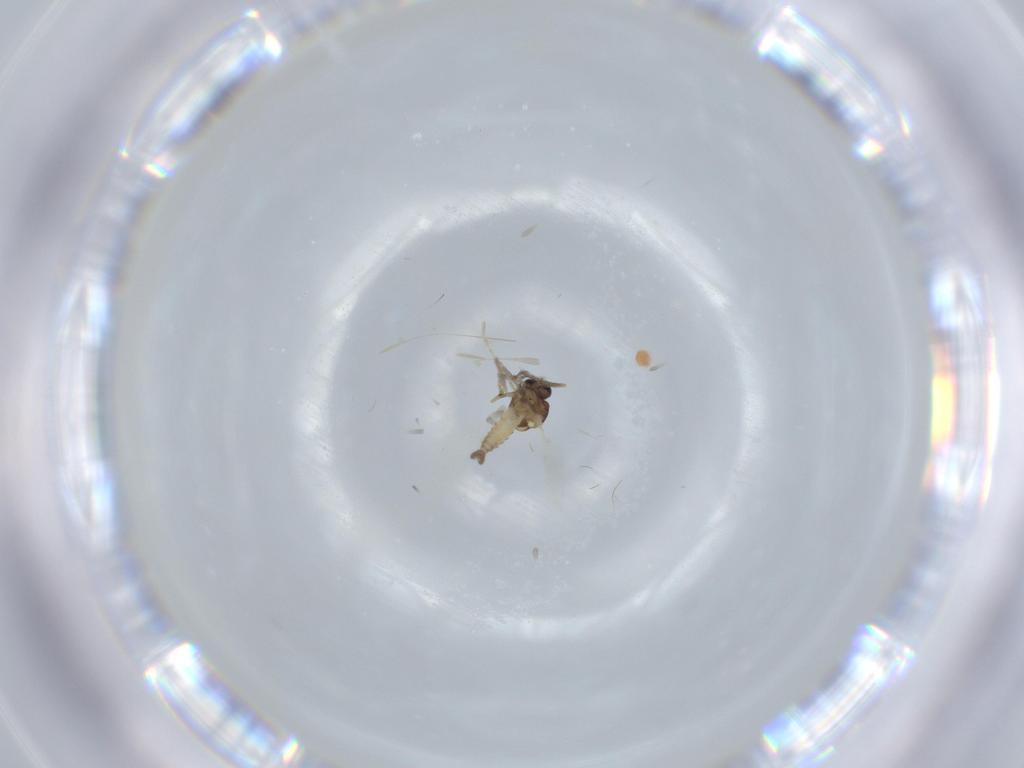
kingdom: Animalia
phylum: Arthropoda
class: Insecta
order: Diptera
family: Ceratopogonidae
